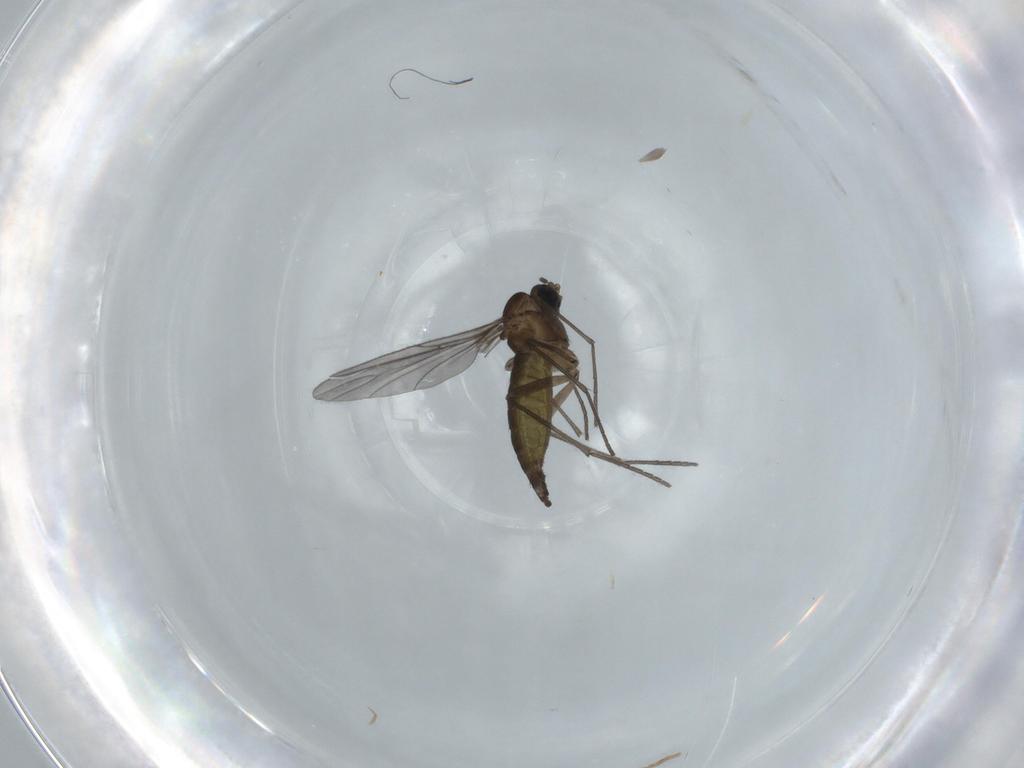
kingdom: Animalia
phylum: Arthropoda
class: Insecta
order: Diptera
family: Sciaridae
